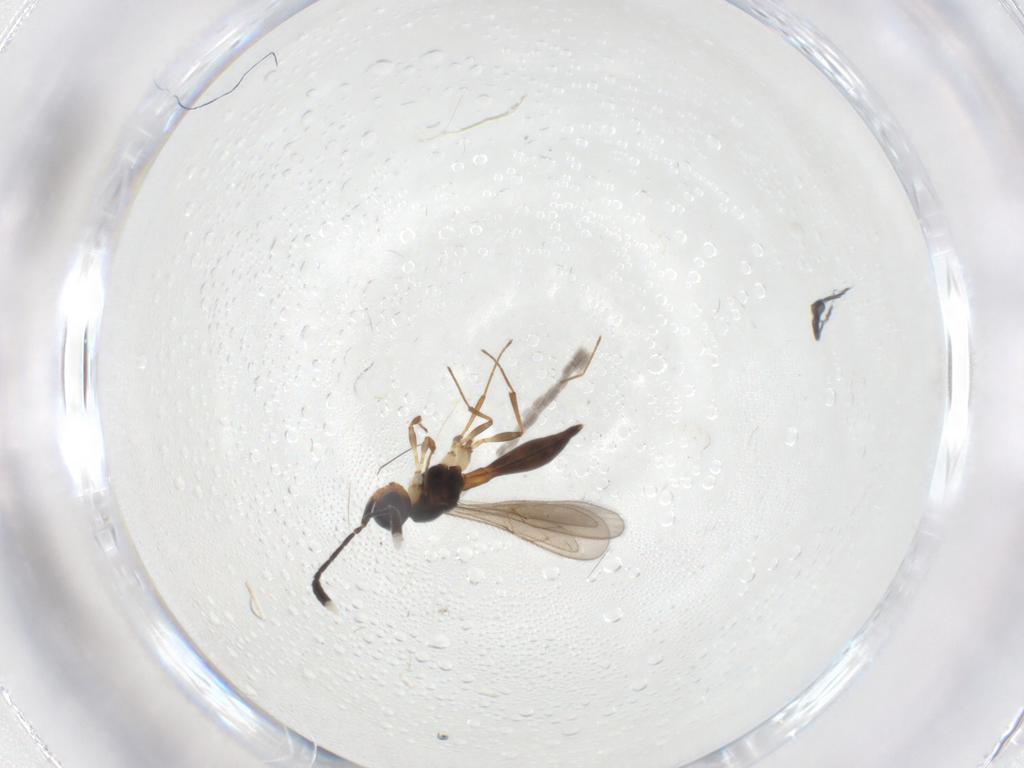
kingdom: Animalia
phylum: Arthropoda
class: Insecta
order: Hymenoptera
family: Scelionidae
